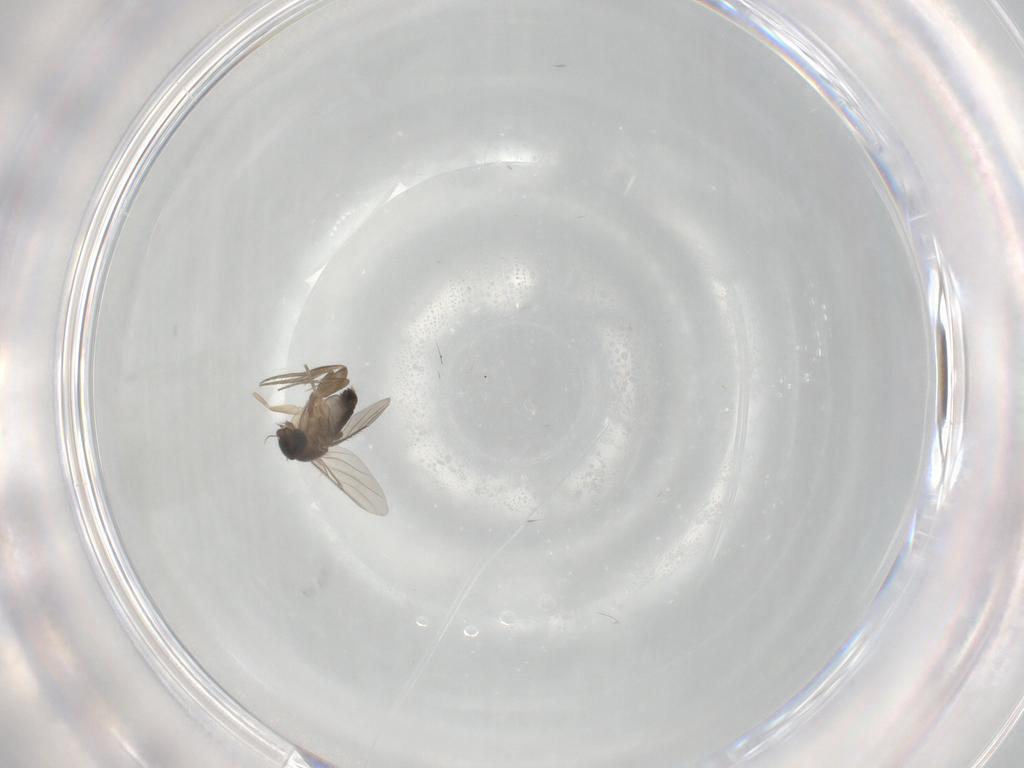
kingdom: Animalia
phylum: Arthropoda
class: Insecta
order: Diptera
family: Phoridae
